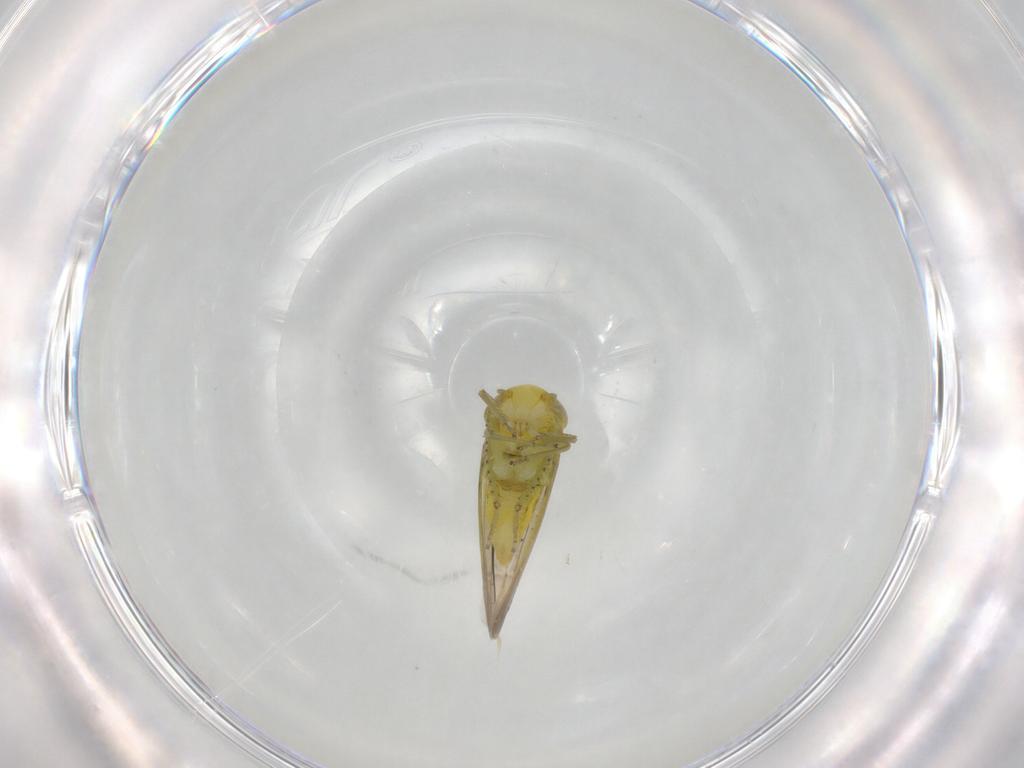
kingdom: Animalia
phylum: Arthropoda
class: Insecta
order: Hemiptera
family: Cicadellidae
